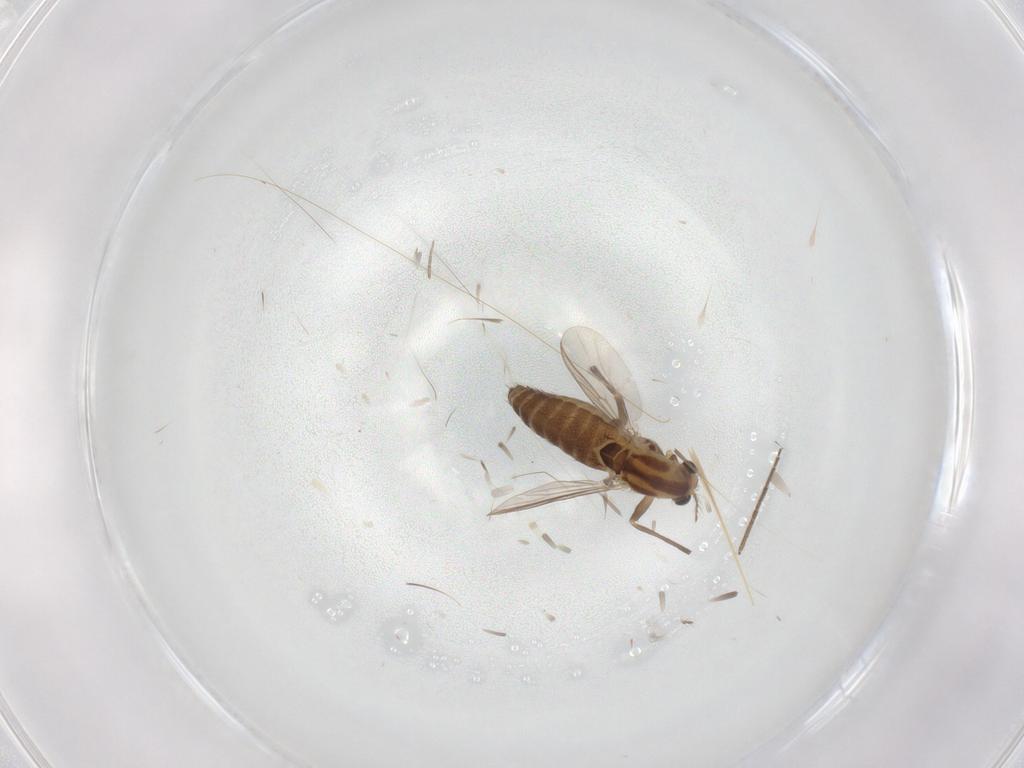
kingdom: Animalia
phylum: Arthropoda
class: Insecta
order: Diptera
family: Chironomidae
